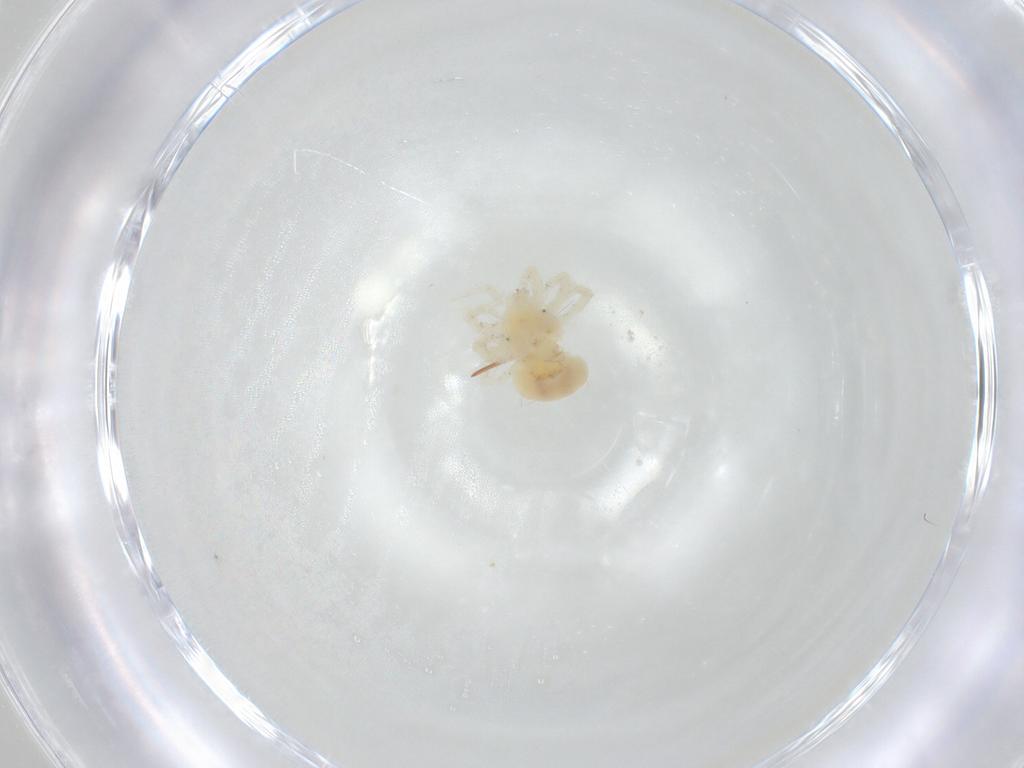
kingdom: Animalia
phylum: Arthropoda
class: Arachnida
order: Trombidiformes
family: Anystidae
